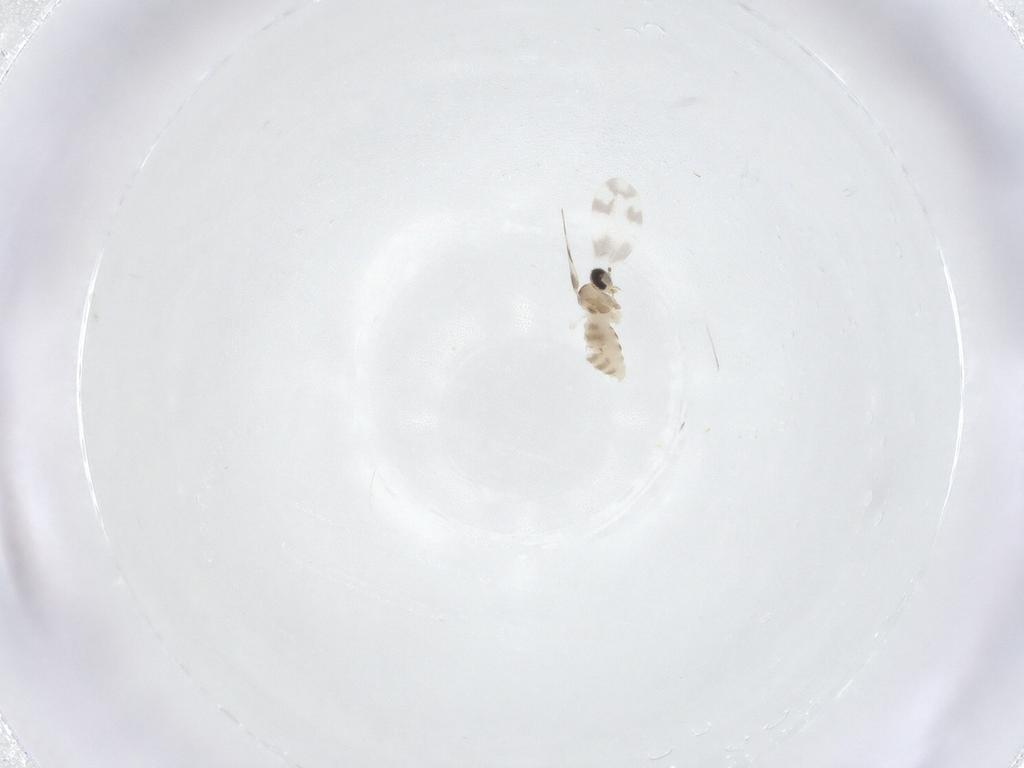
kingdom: Animalia
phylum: Arthropoda
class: Insecta
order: Diptera
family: Cecidomyiidae
